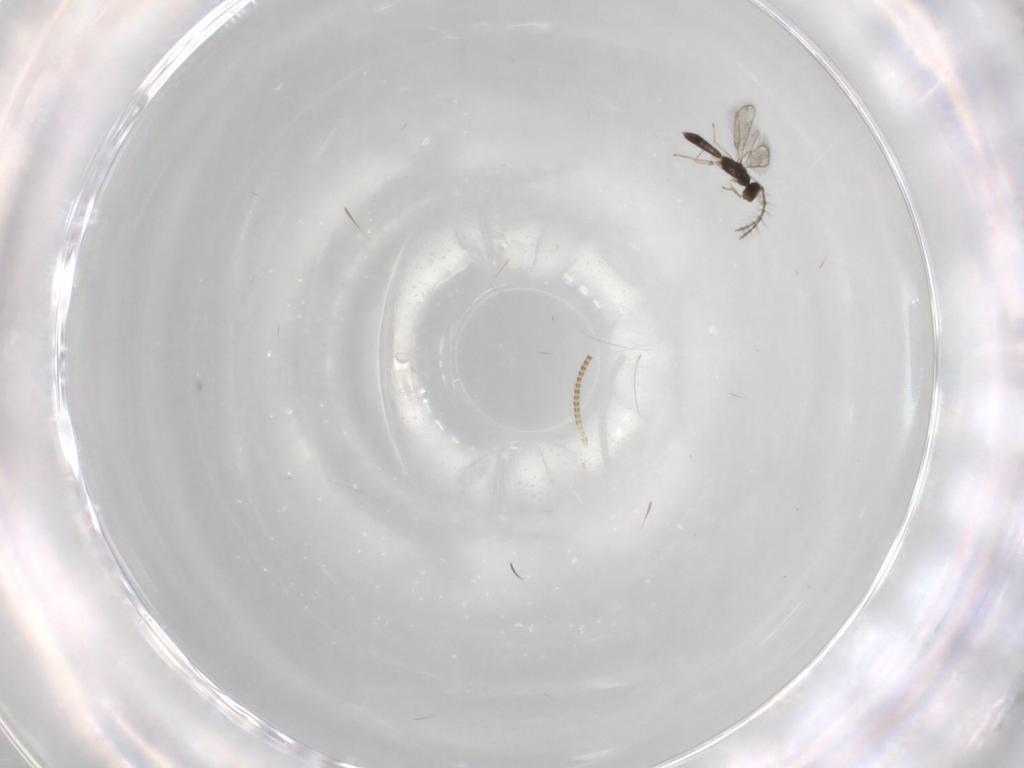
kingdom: Animalia
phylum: Arthropoda
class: Insecta
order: Hymenoptera
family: Pteromalidae
